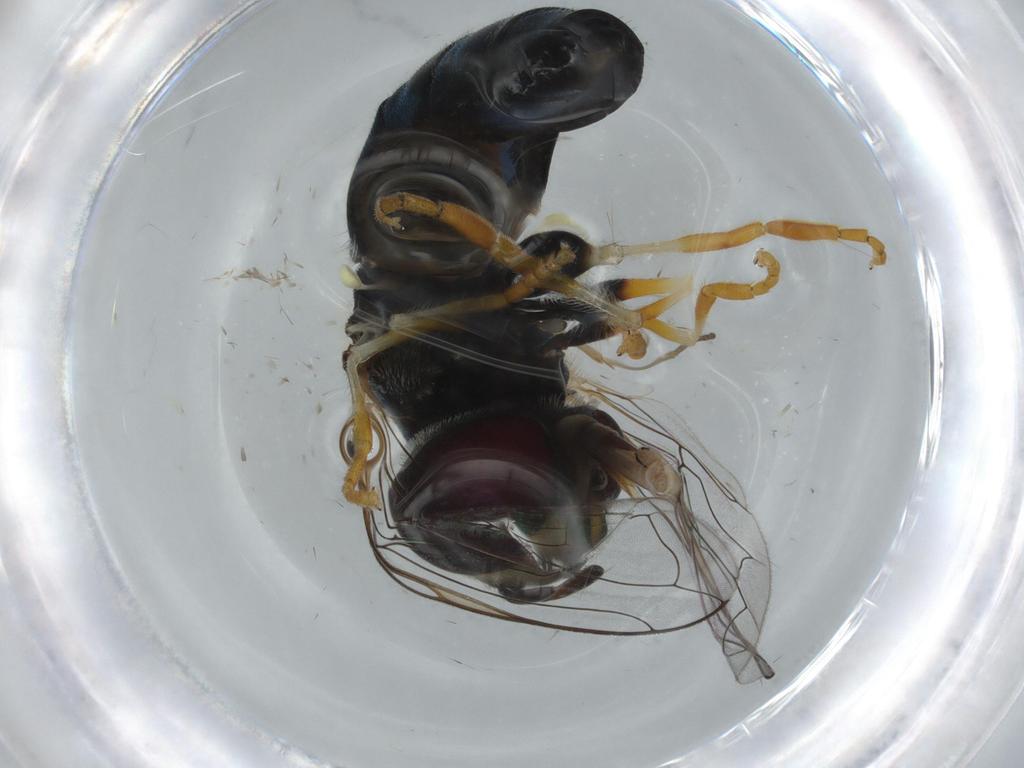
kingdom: Animalia
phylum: Arthropoda
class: Insecta
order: Diptera
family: Syrphidae
